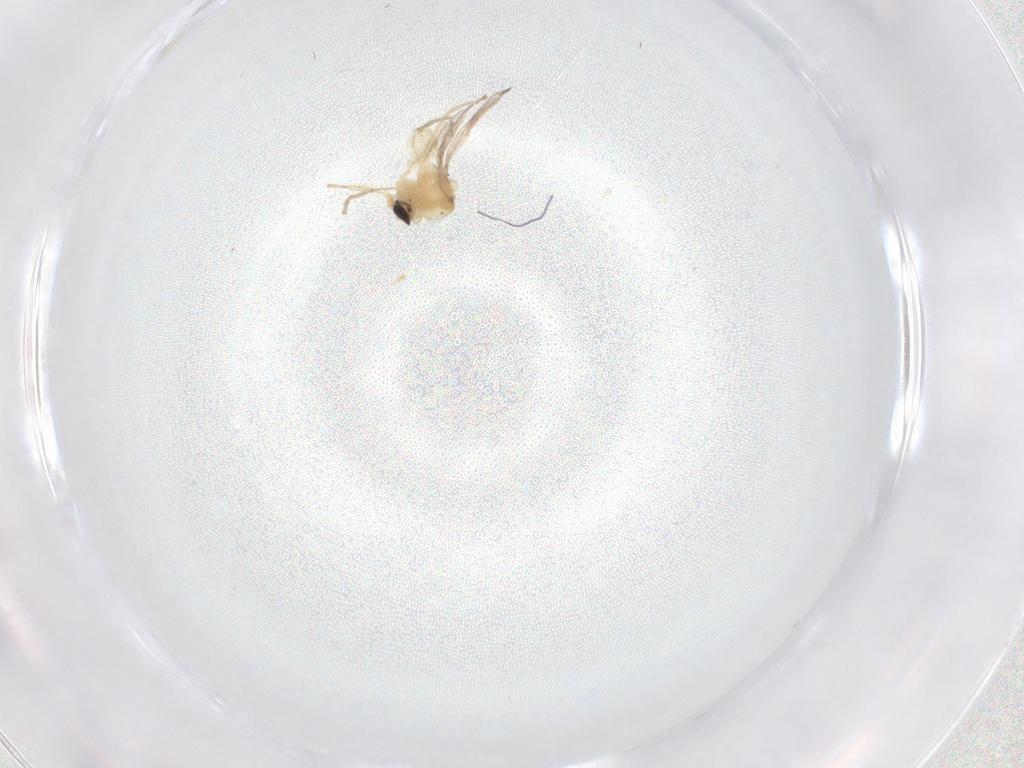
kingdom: Animalia
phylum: Arthropoda
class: Insecta
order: Diptera
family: Chironomidae
